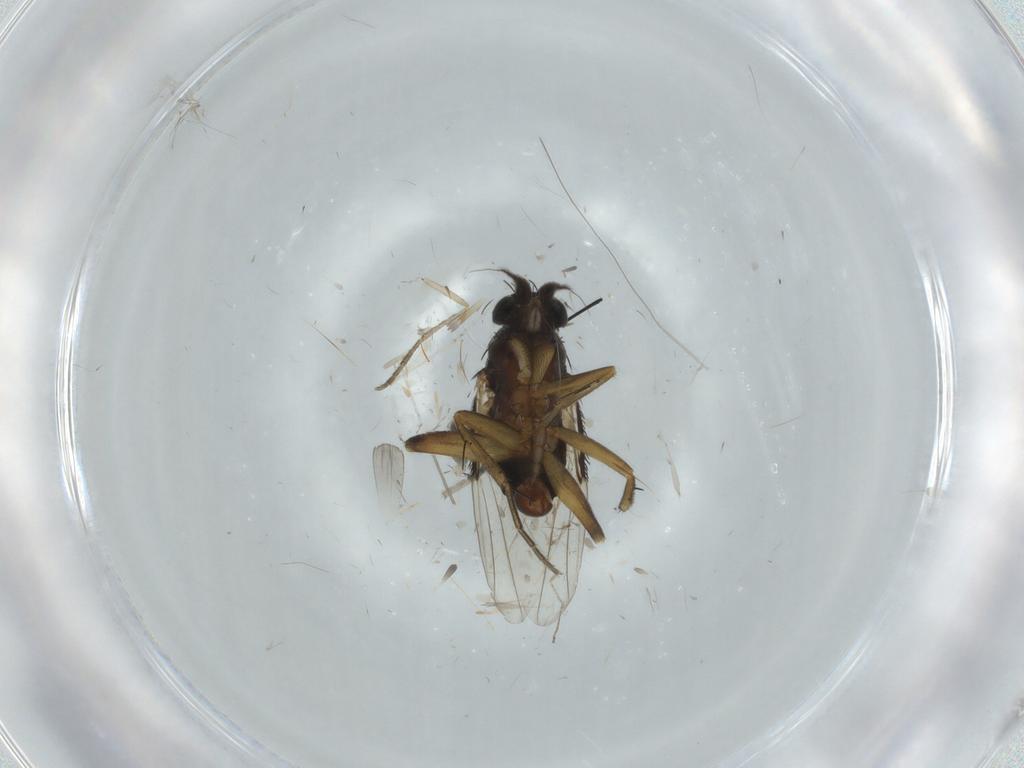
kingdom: Animalia
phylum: Arthropoda
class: Insecta
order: Diptera
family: Phoridae
